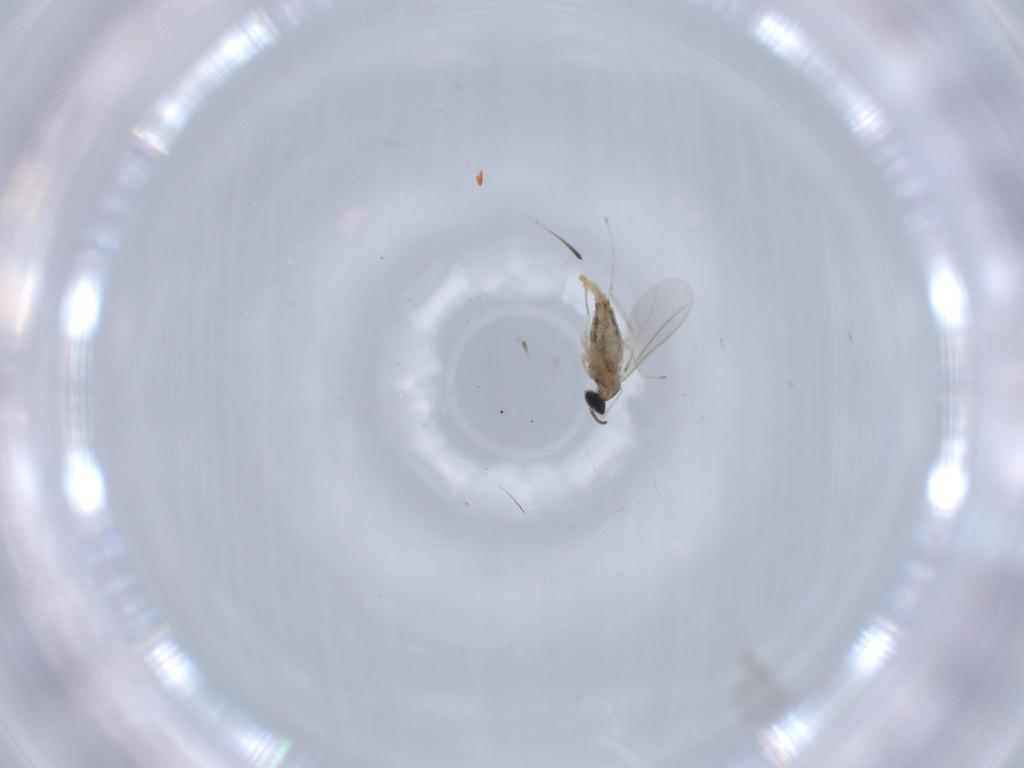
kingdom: Animalia
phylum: Arthropoda
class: Insecta
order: Diptera
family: Cecidomyiidae
